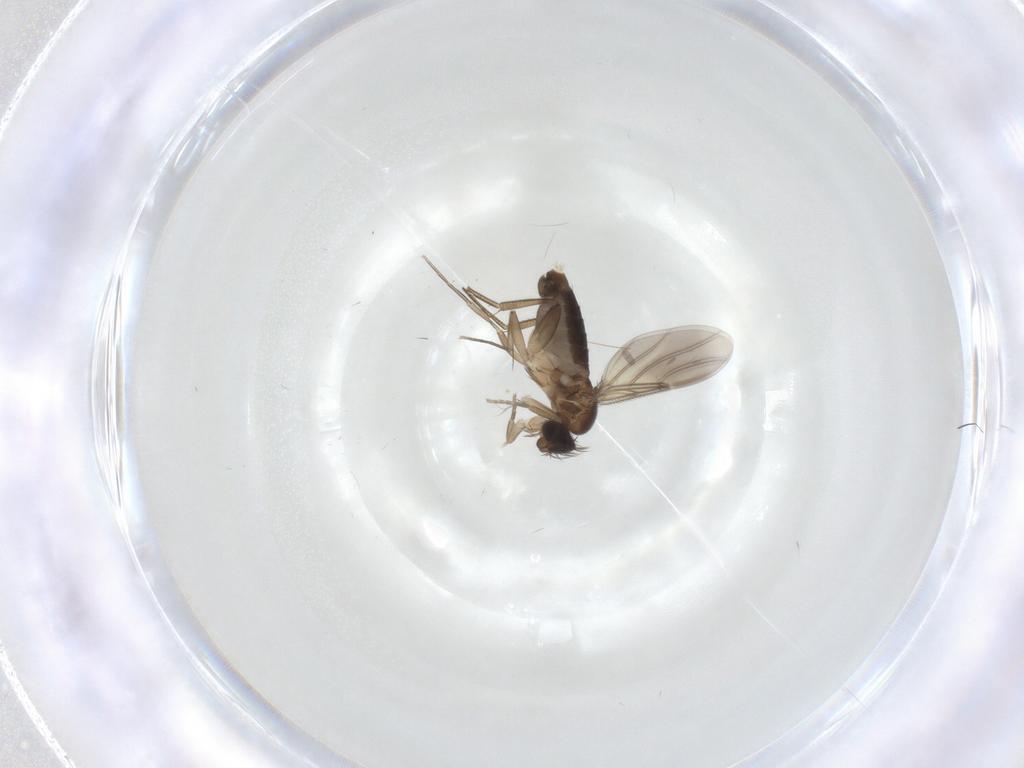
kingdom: Animalia
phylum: Arthropoda
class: Insecta
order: Diptera
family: Phoridae
